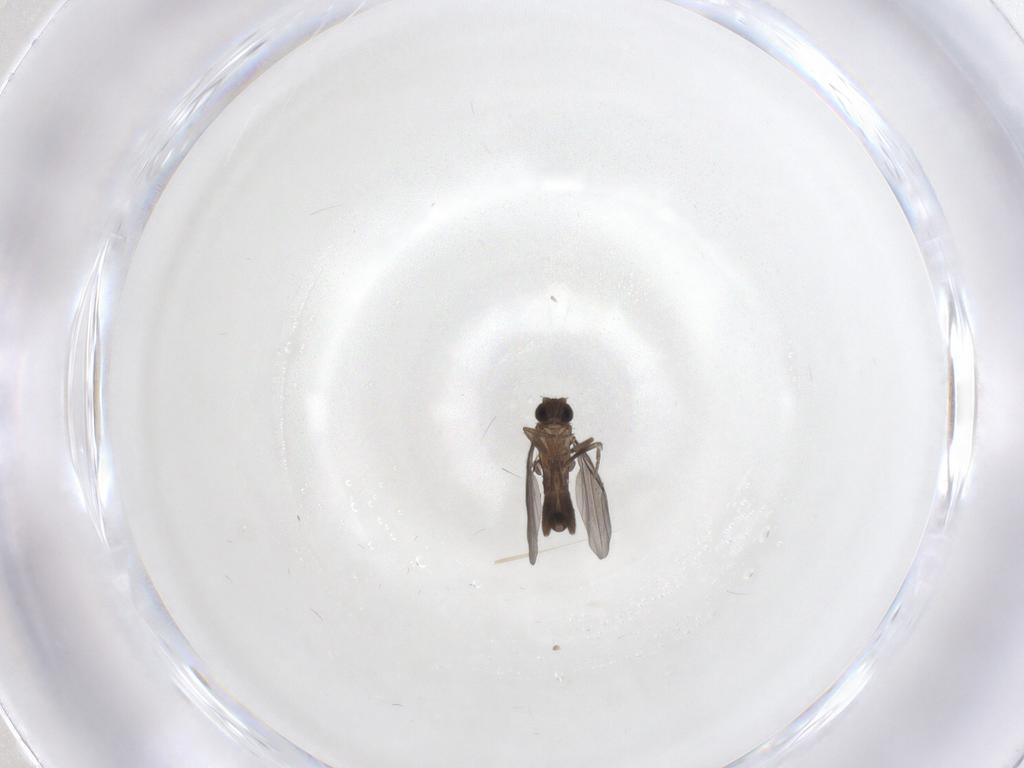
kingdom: Animalia
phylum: Arthropoda
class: Insecta
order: Diptera
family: Phoridae
